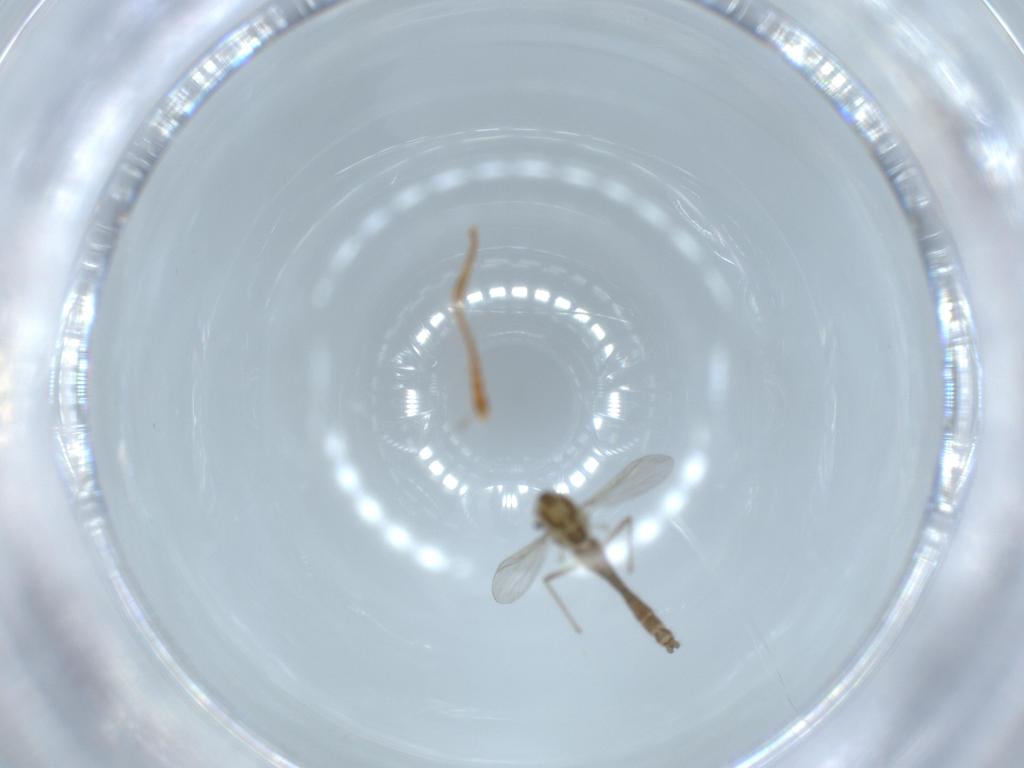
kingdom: Animalia
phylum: Arthropoda
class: Insecta
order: Diptera
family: Chironomidae
